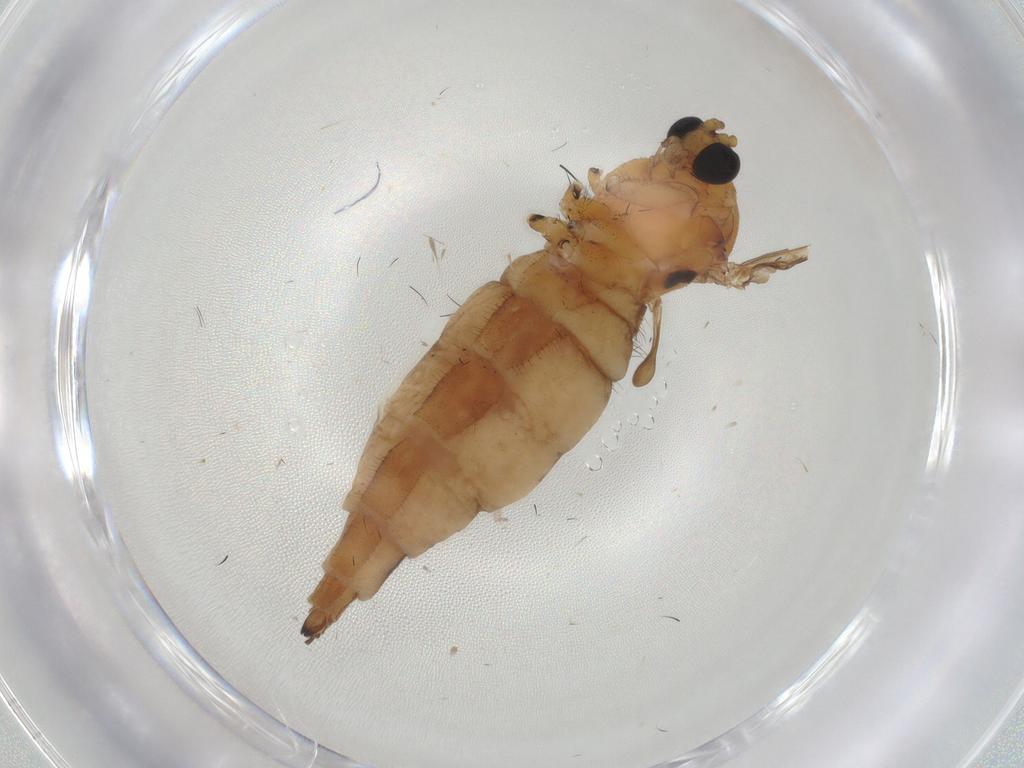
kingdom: Animalia
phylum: Arthropoda
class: Insecta
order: Diptera
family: Sciaridae
